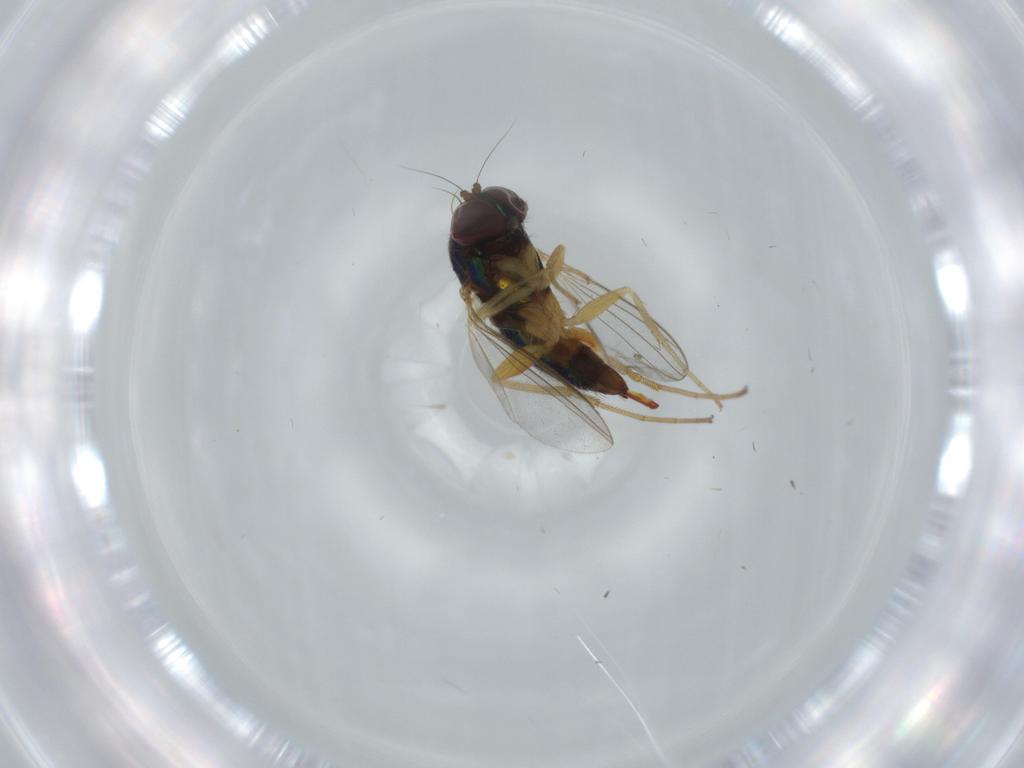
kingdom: Animalia
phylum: Arthropoda
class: Insecta
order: Diptera
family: Dolichopodidae
